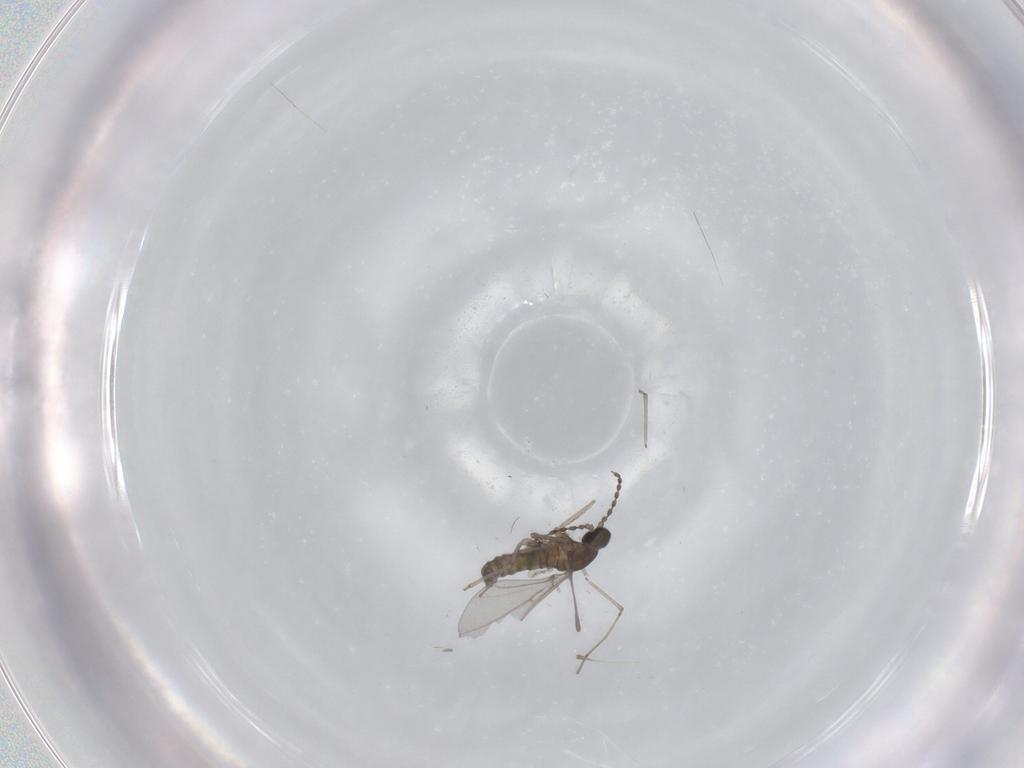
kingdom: Animalia
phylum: Arthropoda
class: Insecta
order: Diptera
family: Cecidomyiidae
